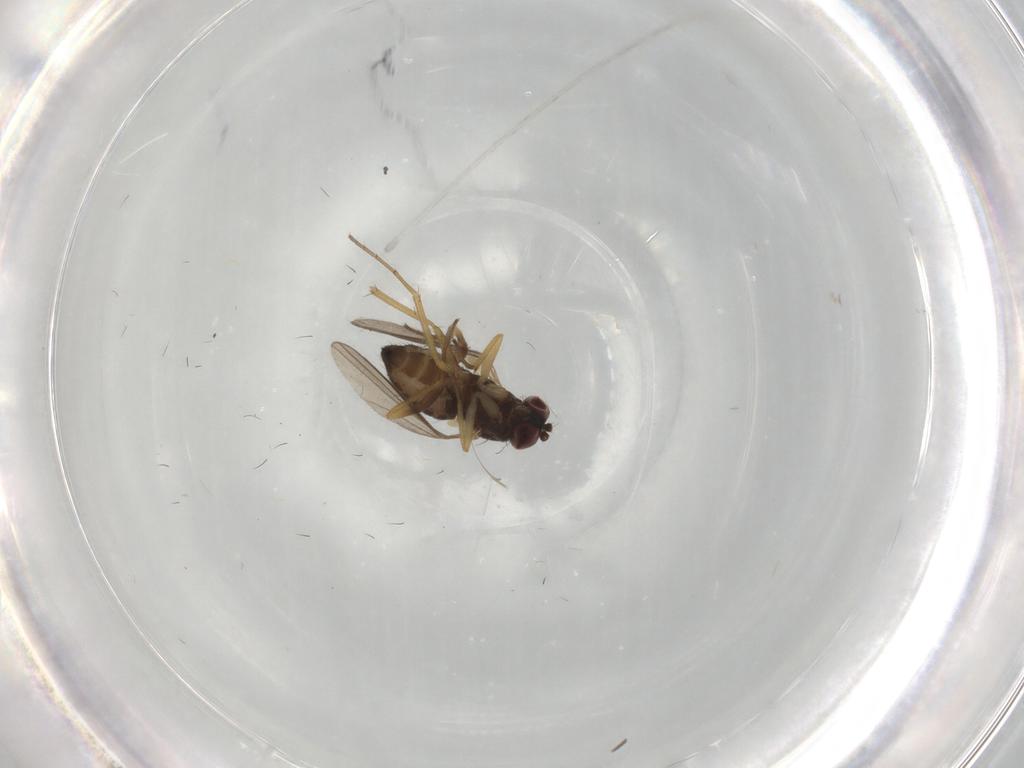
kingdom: Animalia
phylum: Arthropoda
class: Insecta
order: Diptera
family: Dolichopodidae
